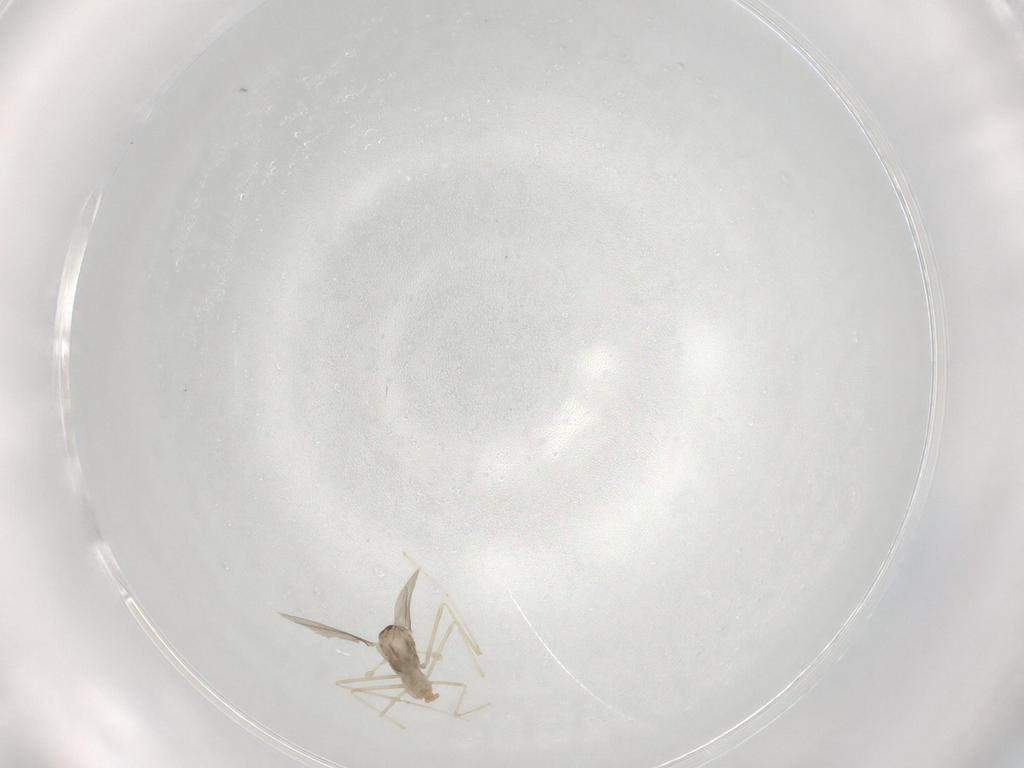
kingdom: Animalia
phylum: Arthropoda
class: Insecta
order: Diptera
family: Cecidomyiidae
